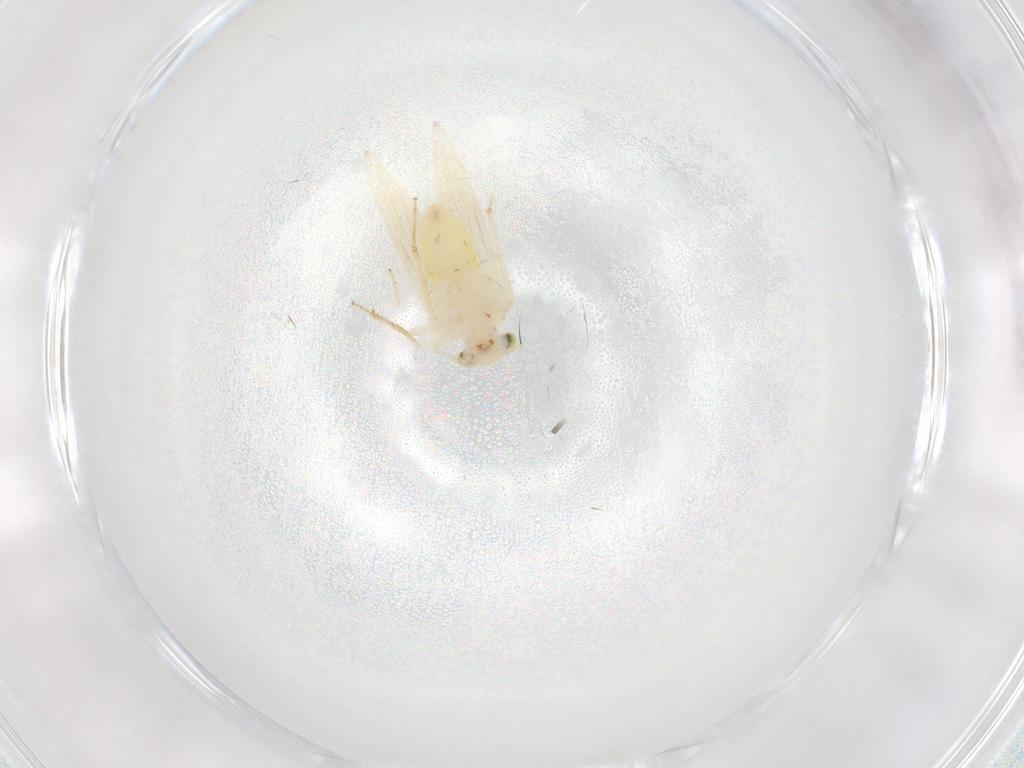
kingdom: Animalia
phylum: Arthropoda
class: Insecta
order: Psocodea
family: Lepidopsocidae
